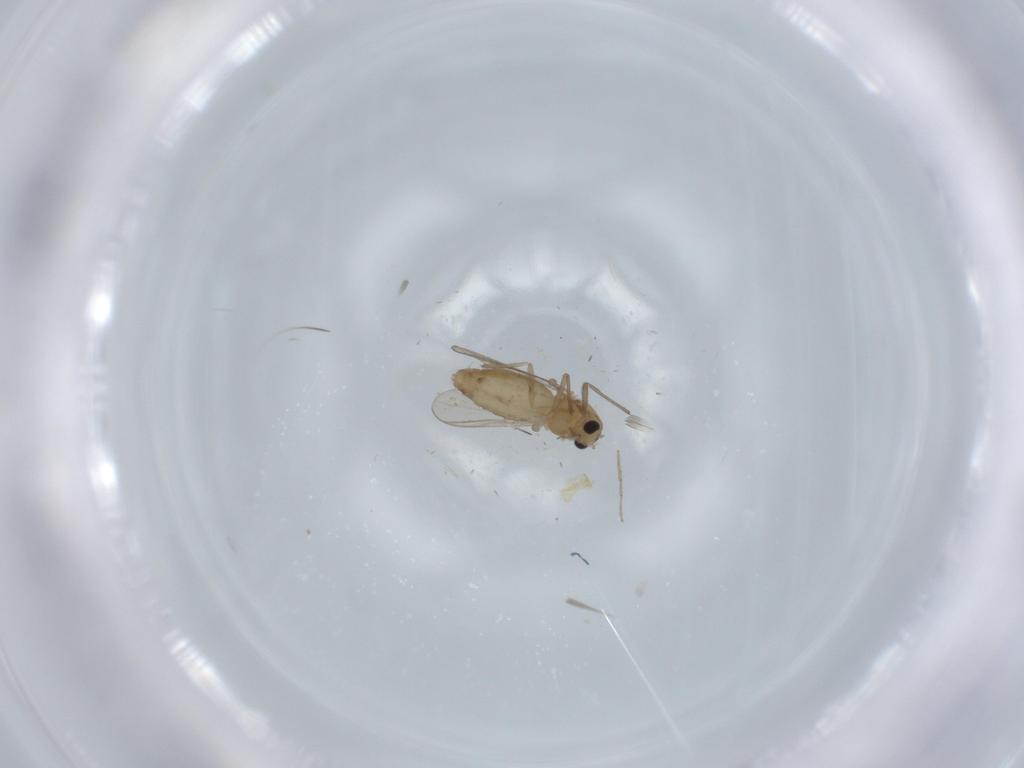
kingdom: Animalia
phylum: Arthropoda
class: Insecta
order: Diptera
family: Chironomidae
